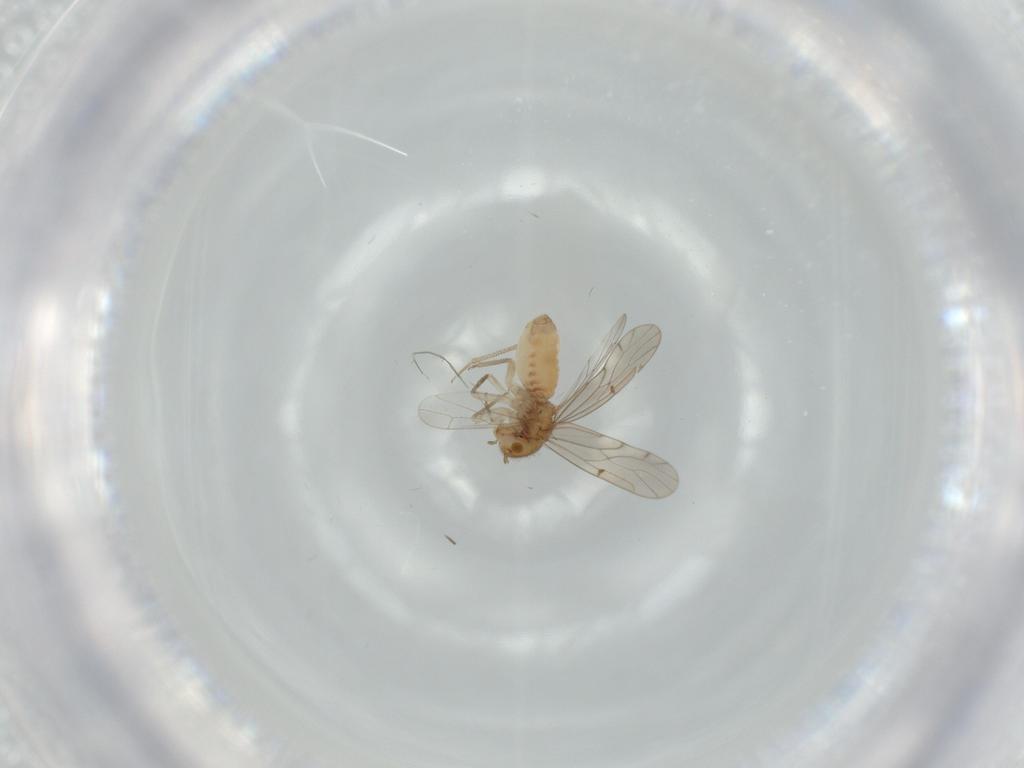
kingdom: Animalia
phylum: Arthropoda
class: Insecta
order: Psocodea
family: Ectopsocidae
